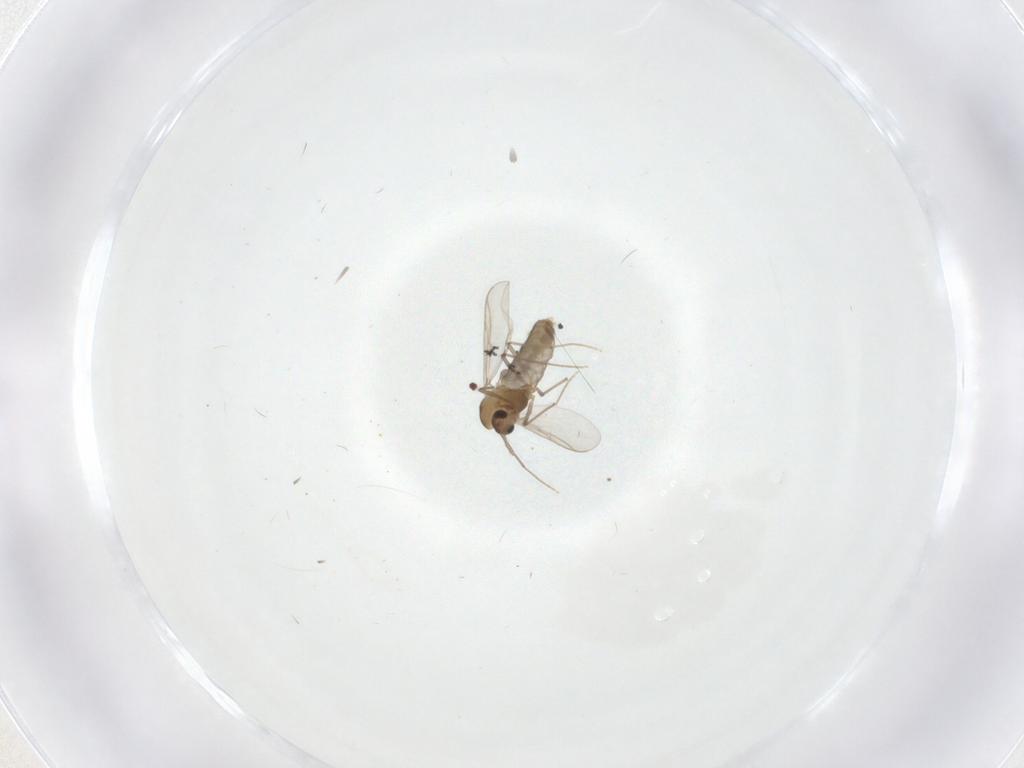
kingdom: Animalia
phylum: Arthropoda
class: Insecta
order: Diptera
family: Chironomidae
